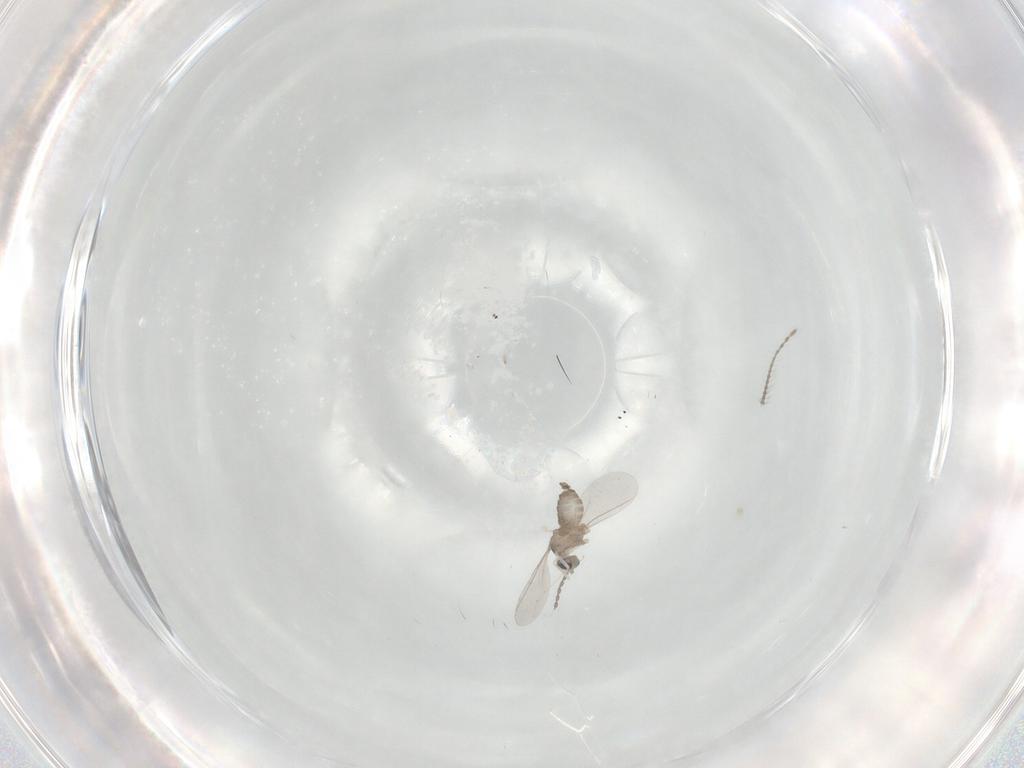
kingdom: Animalia
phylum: Arthropoda
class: Insecta
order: Diptera
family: Ceratopogonidae
